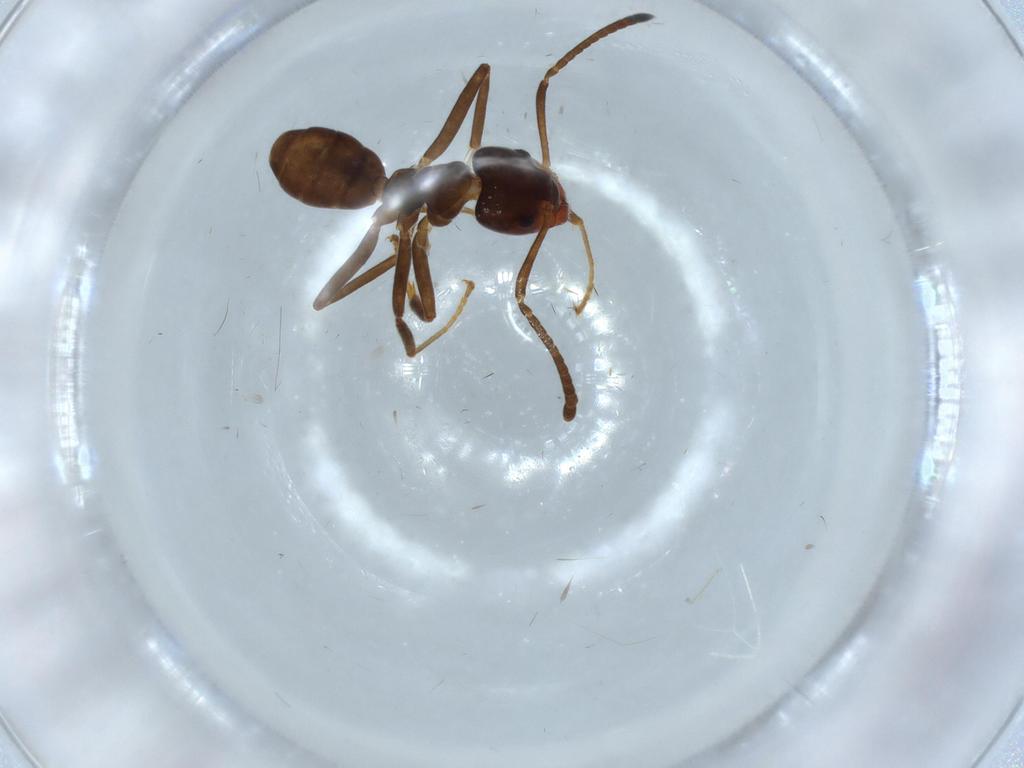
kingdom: Animalia
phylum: Arthropoda
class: Insecta
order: Hymenoptera
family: Formicidae
